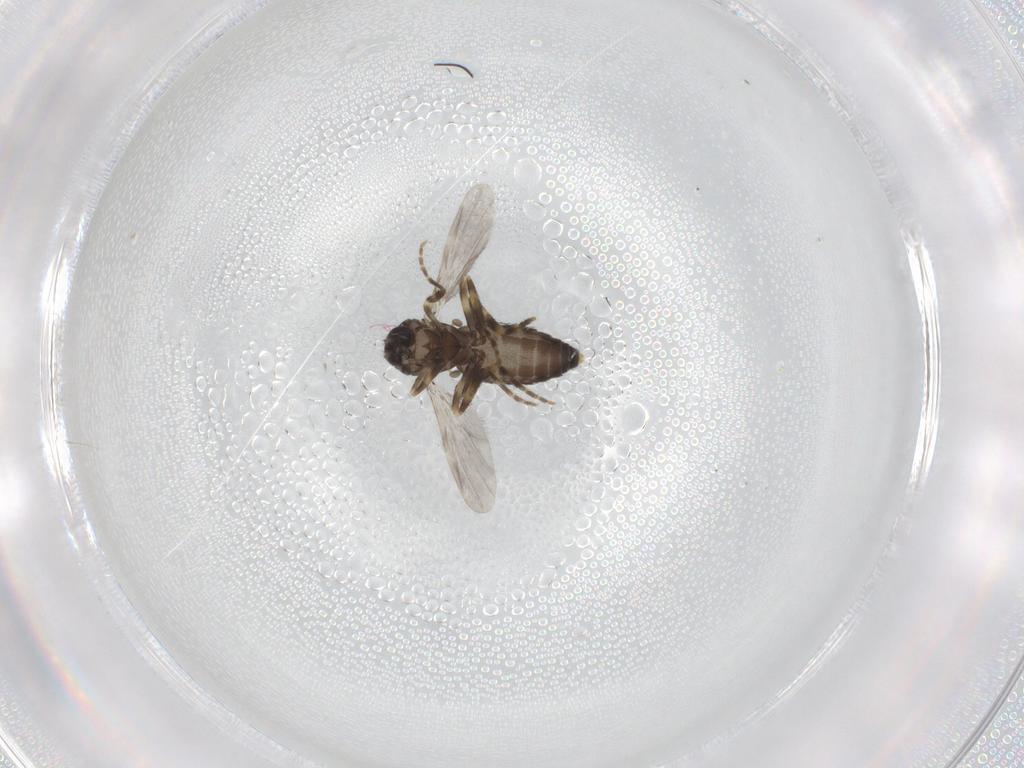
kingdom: Animalia
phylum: Arthropoda
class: Insecta
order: Diptera
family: Ceratopogonidae
